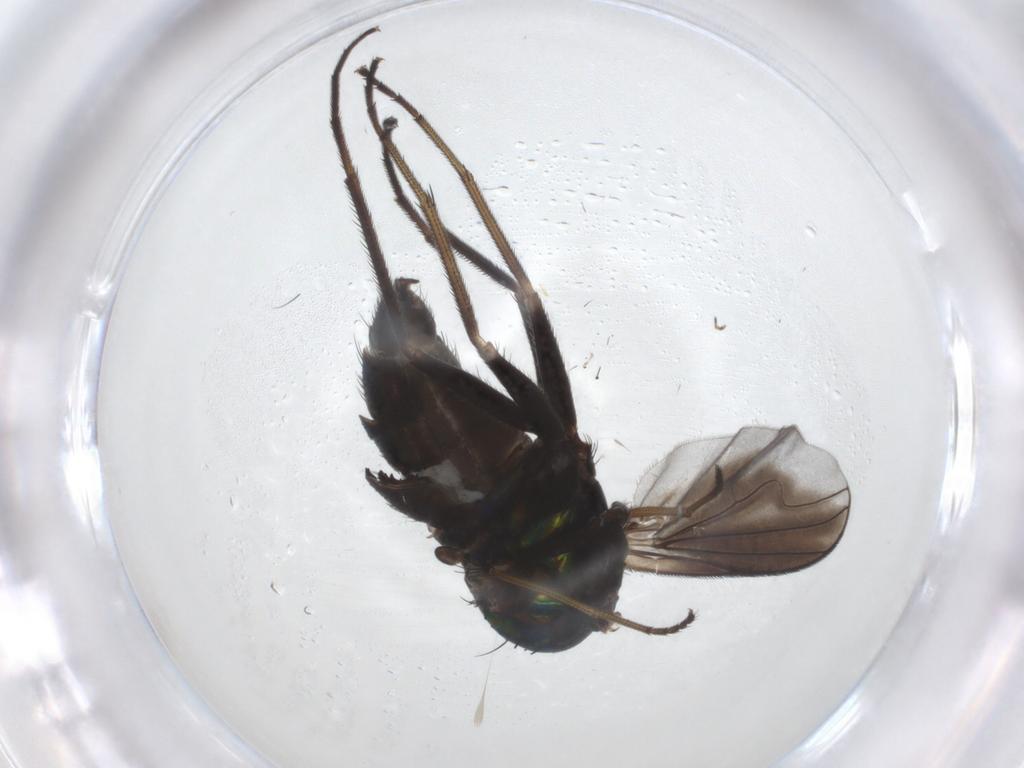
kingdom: Animalia
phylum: Arthropoda
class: Insecta
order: Diptera
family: Dolichopodidae
